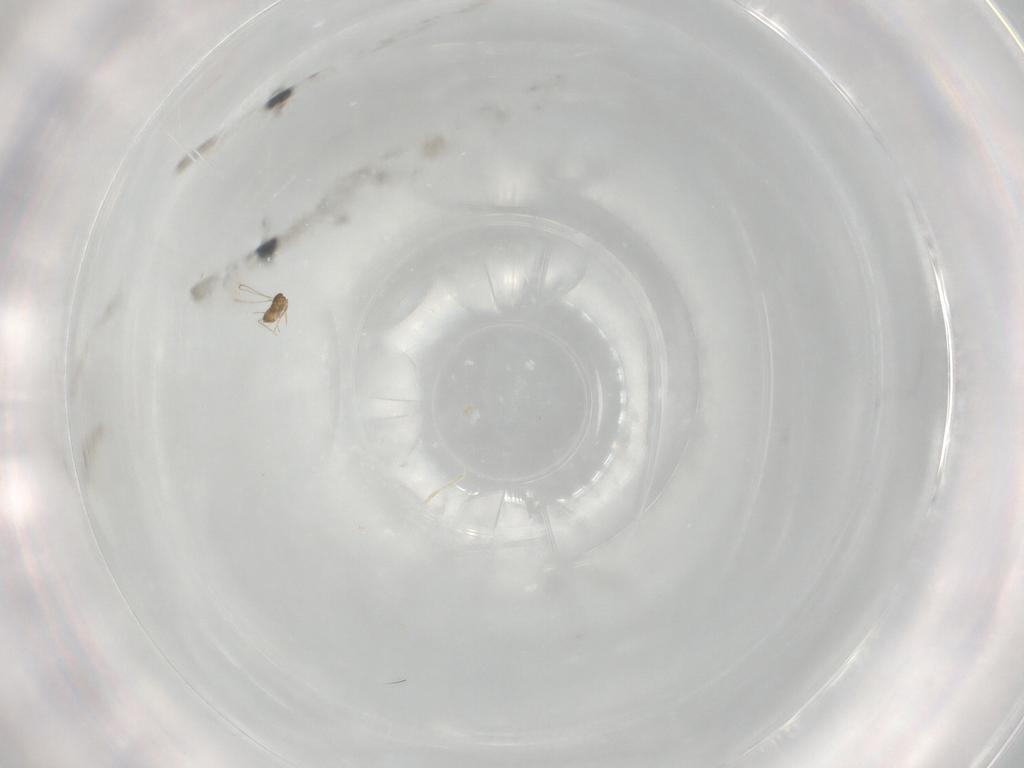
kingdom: Animalia
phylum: Arthropoda
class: Insecta
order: Hymenoptera
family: Mymaridae
